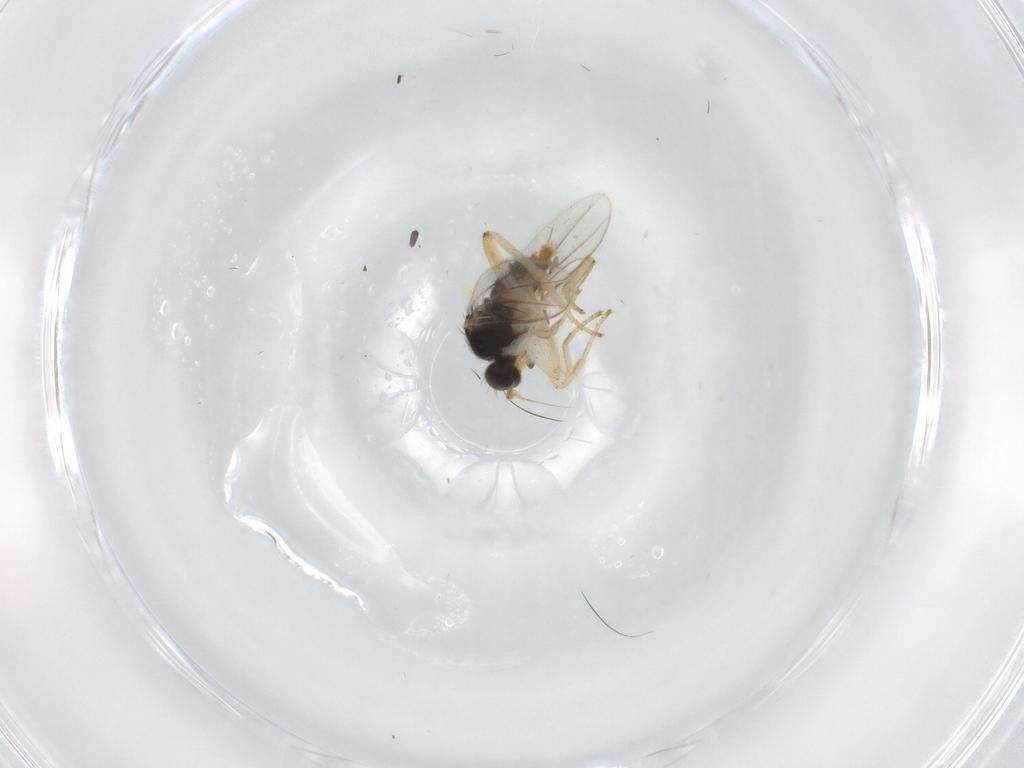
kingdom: Animalia
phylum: Arthropoda
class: Insecta
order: Diptera
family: Hybotidae
